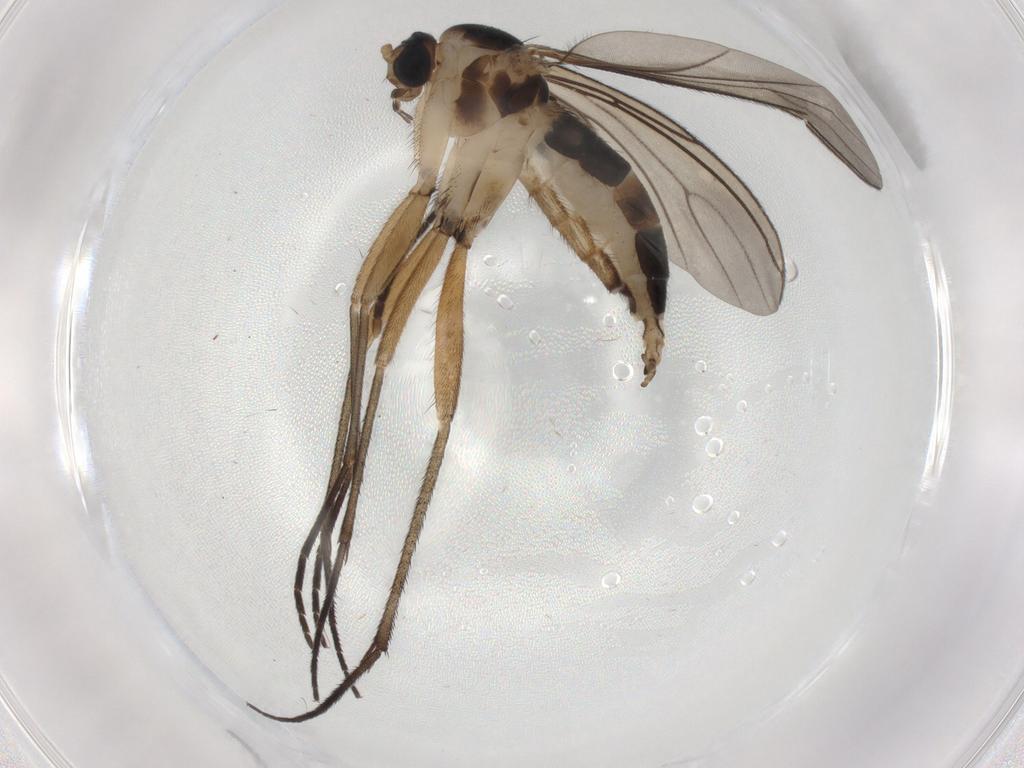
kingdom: Animalia
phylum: Arthropoda
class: Insecta
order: Diptera
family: Sciaridae
